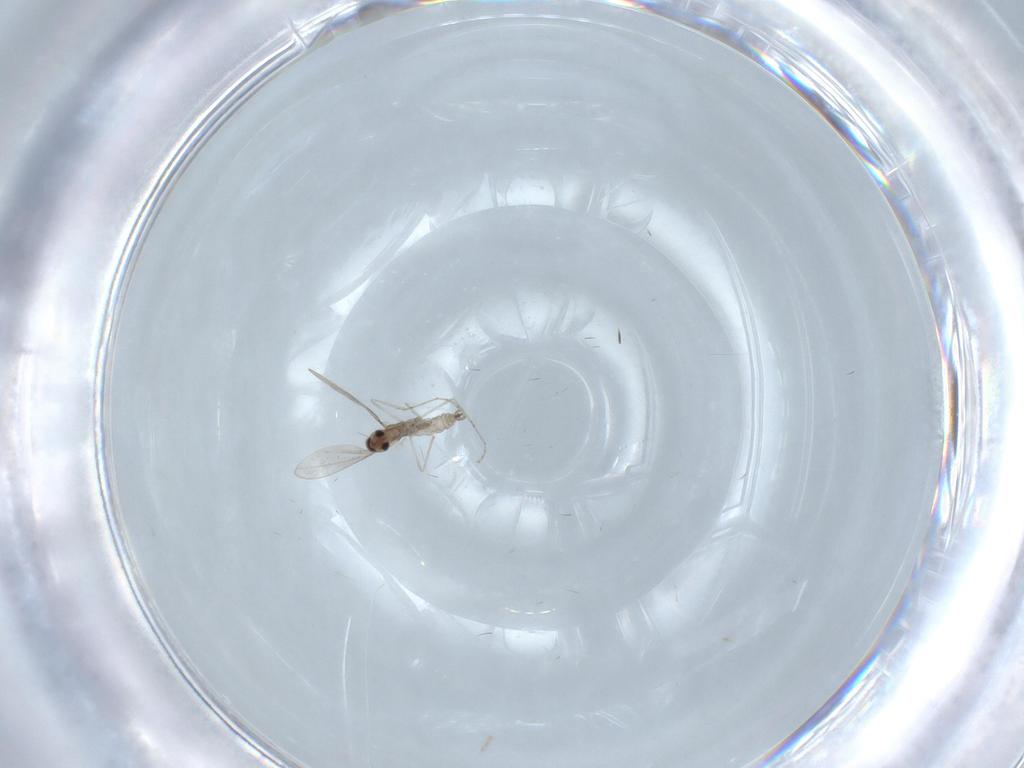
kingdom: Animalia
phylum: Arthropoda
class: Insecta
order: Diptera
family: Cecidomyiidae
